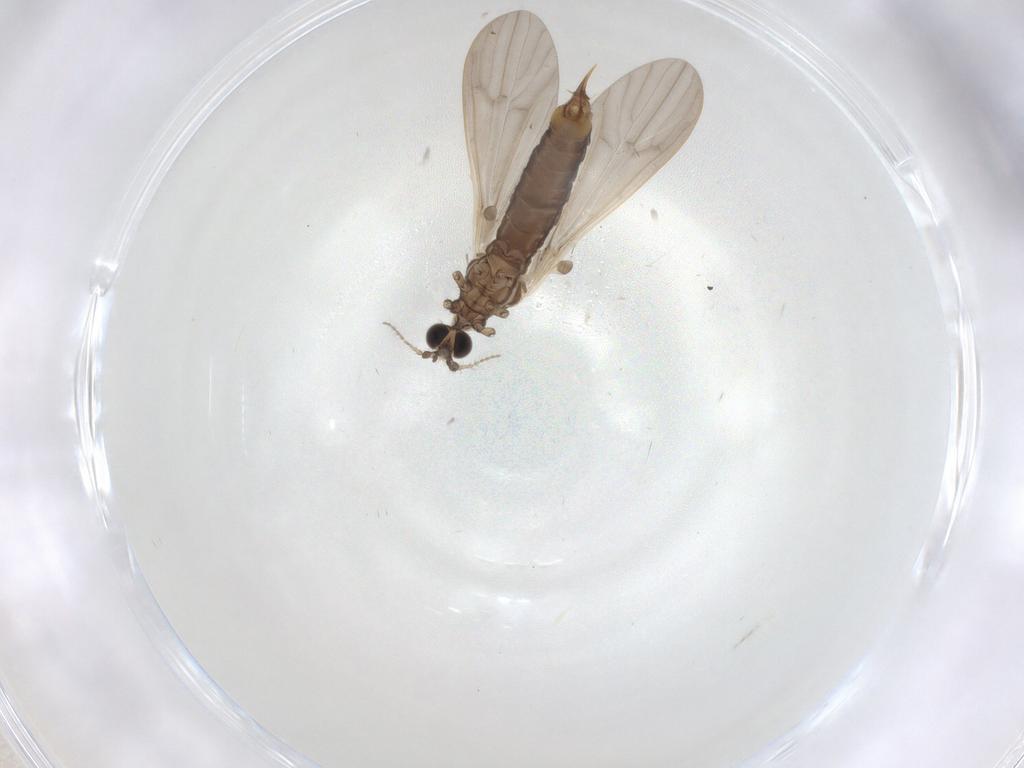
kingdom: Animalia
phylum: Arthropoda
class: Insecta
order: Diptera
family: Limoniidae
